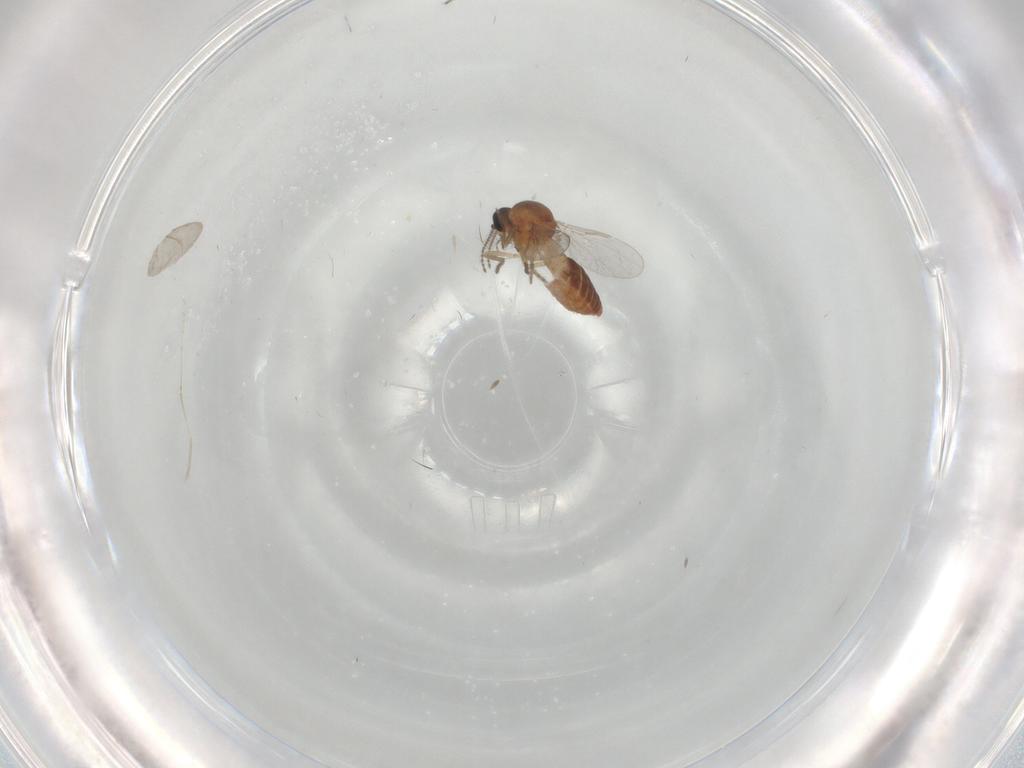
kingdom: Animalia
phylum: Arthropoda
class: Insecta
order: Diptera
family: Ceratopogonidae
